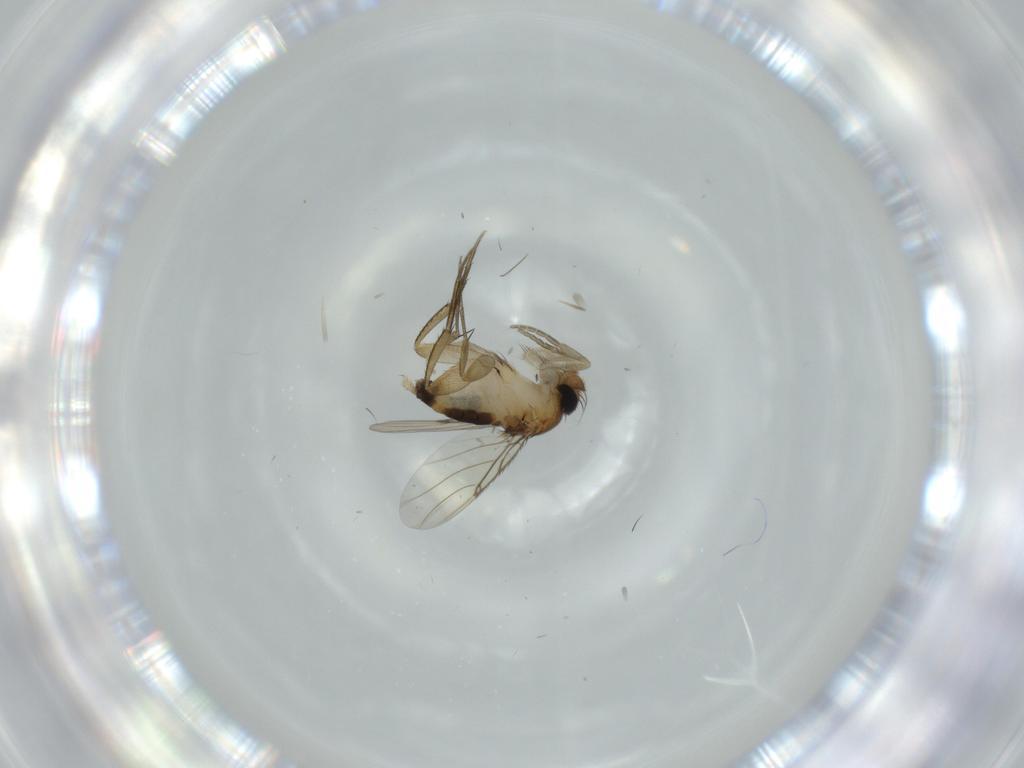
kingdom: Animalia
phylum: Arthropoda
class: Insecta
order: Diptera
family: Phoridae
